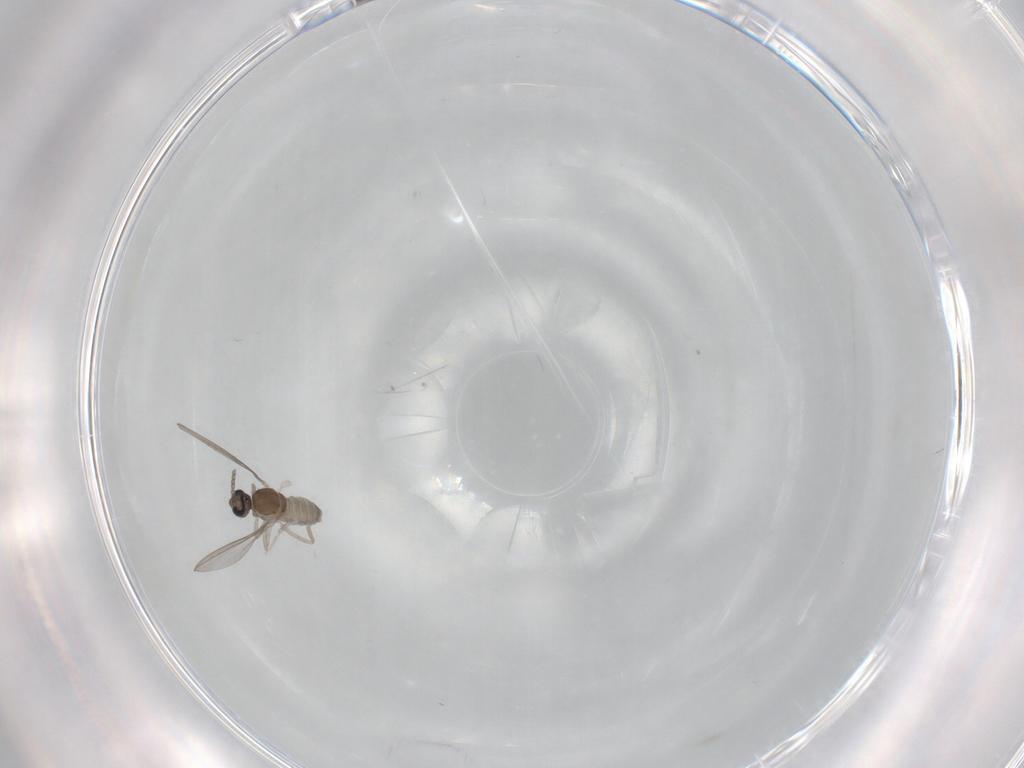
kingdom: Animalia
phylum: Arthropoda
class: Insecta
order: Diptera
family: Cecidomyiidae
